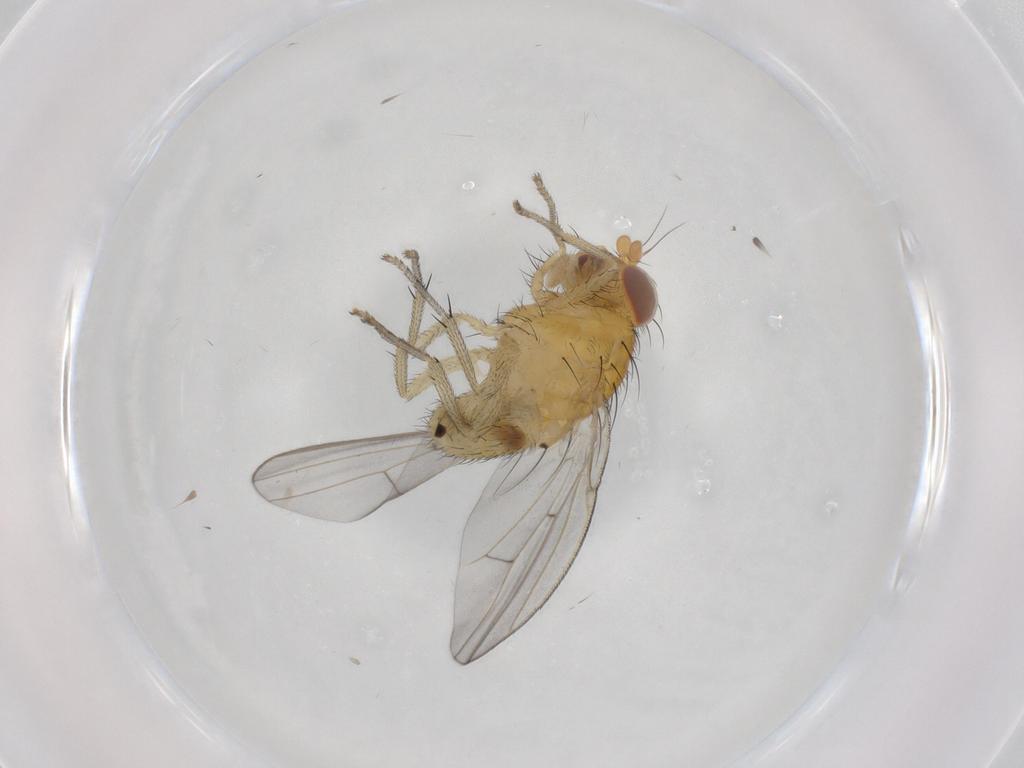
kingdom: Animalia
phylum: Arthropoda
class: Insecta
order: Diptera
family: Lauxaniidae
